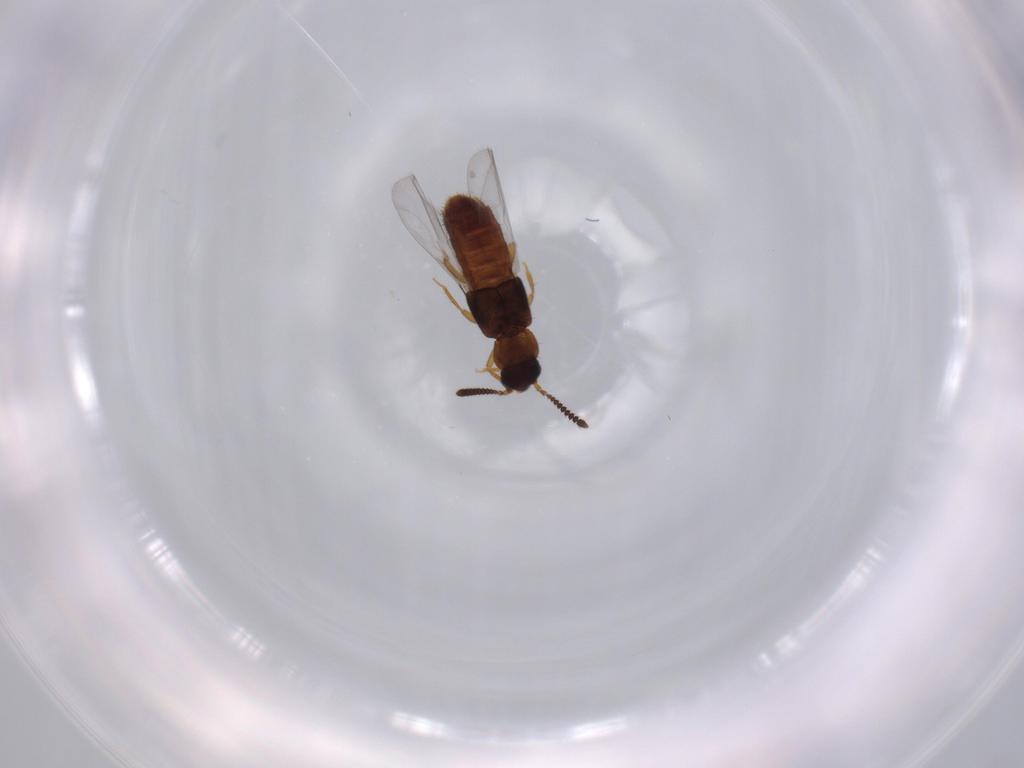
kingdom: Animalia
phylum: Arthropoda
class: Insecta
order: Coleoptera
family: Staphylinidae
